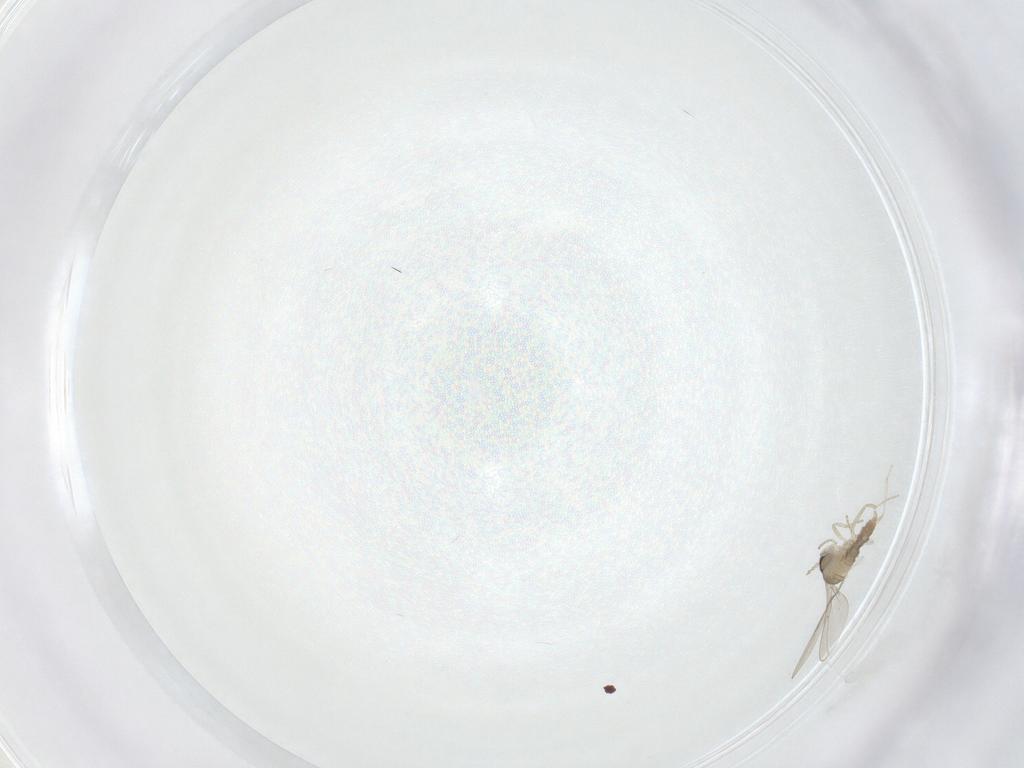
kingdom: Animalia
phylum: Arthropoda
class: Insecta
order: Diptera
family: Cecidomyiidae
